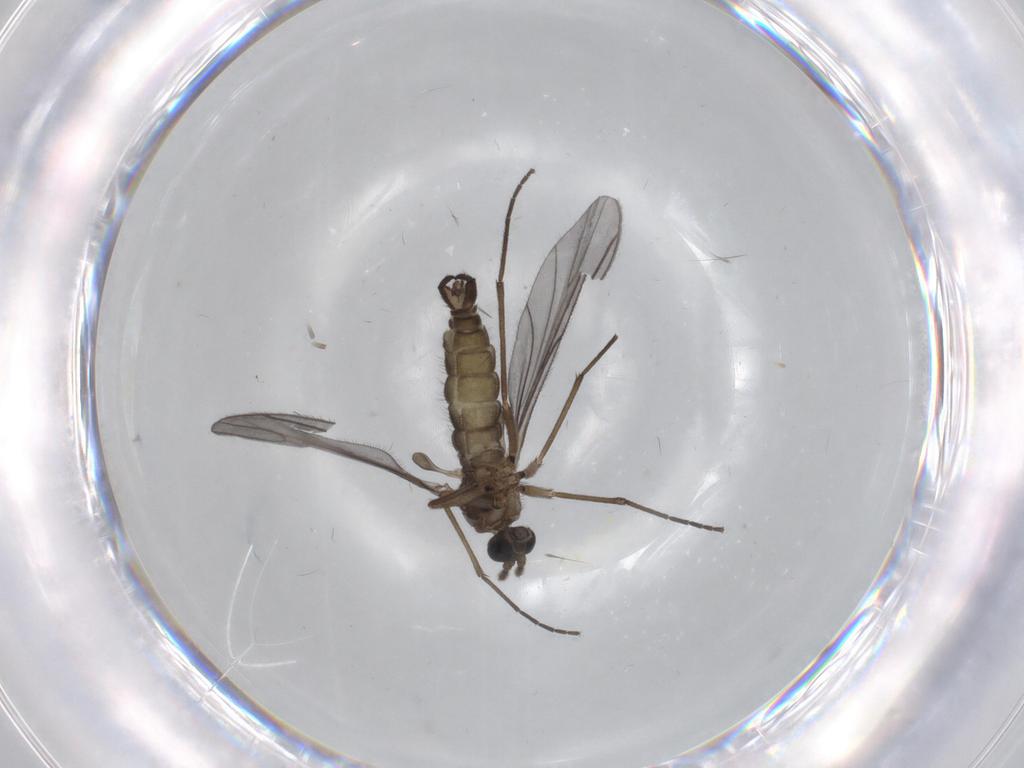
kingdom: Animalia
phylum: Arthropoda
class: Insecta
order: Diptera
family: Sciaridae
